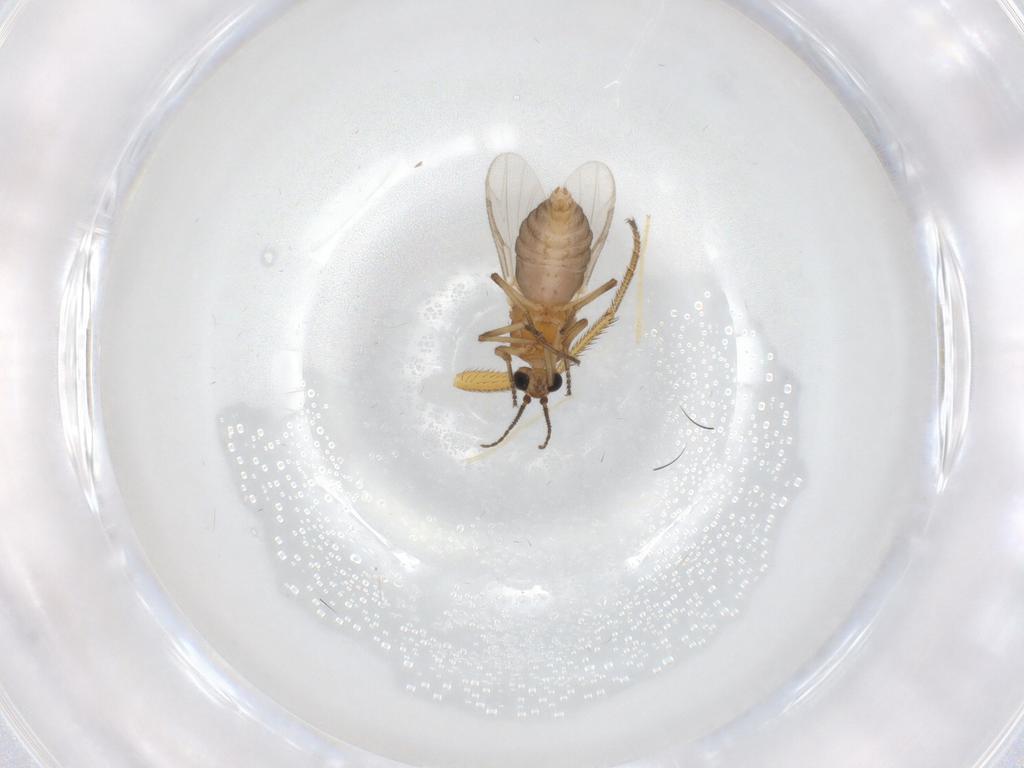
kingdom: Animalia
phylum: Arthropoda
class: Insecta
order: Diptera
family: Ceratopogonidae
